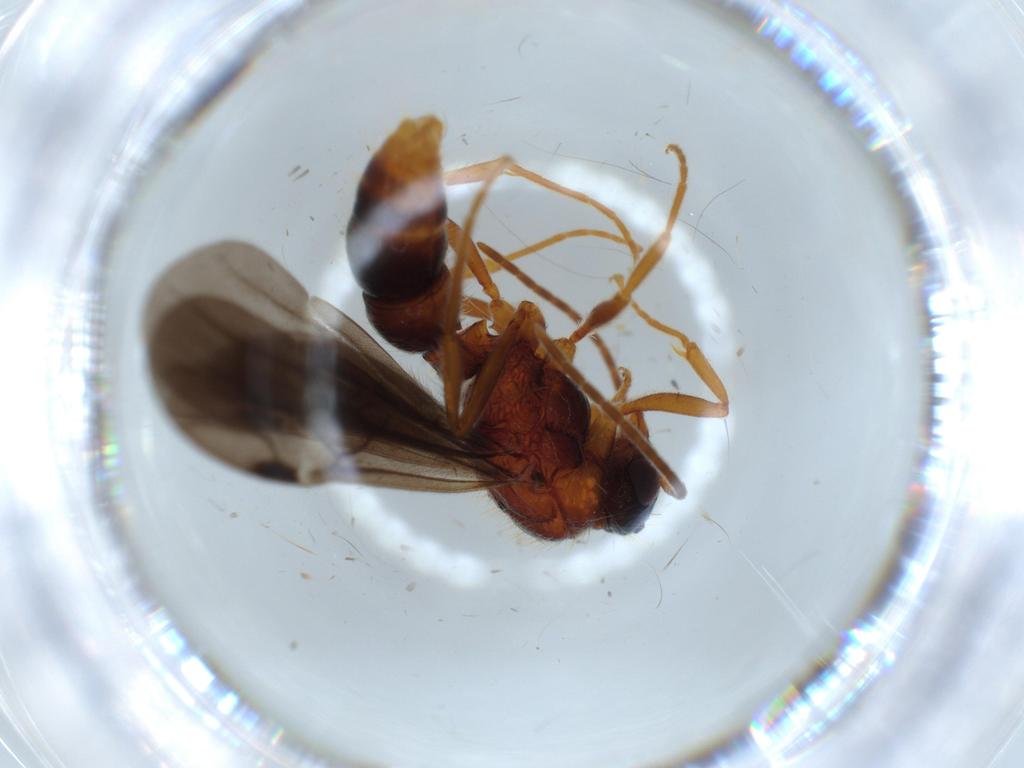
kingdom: Animalia
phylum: Arthropoda
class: Insecta
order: Hymenoptera
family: Formicidae
